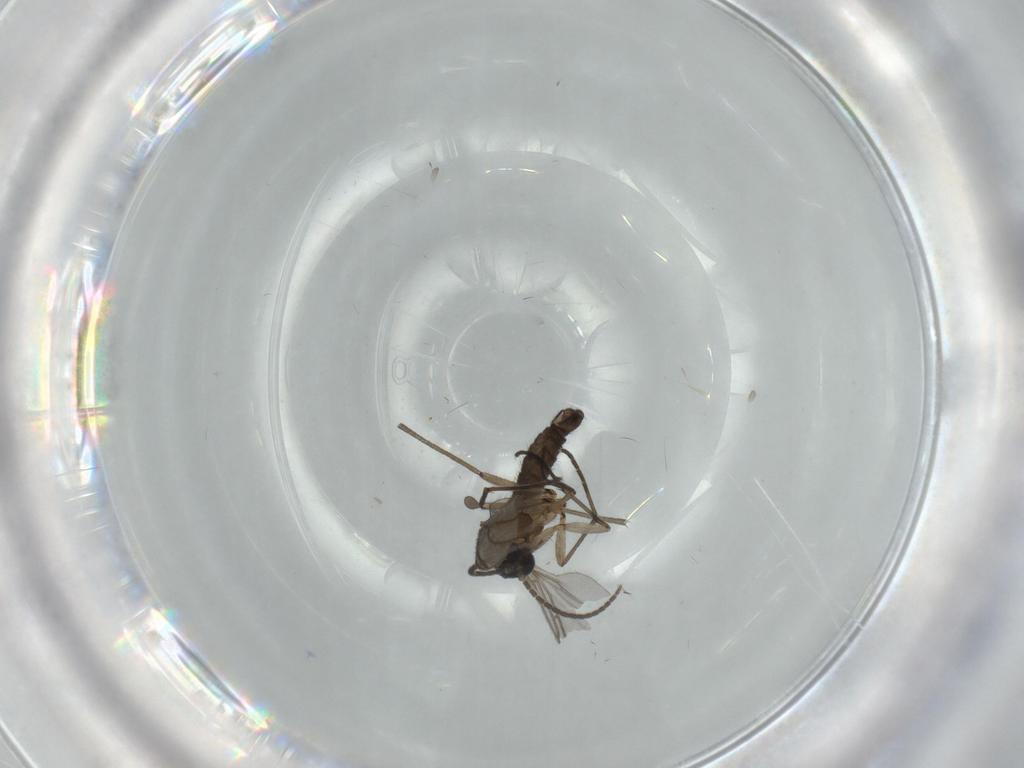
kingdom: Animalia
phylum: Arthropoda
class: Insecta
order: Diptera
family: Sciaridae
